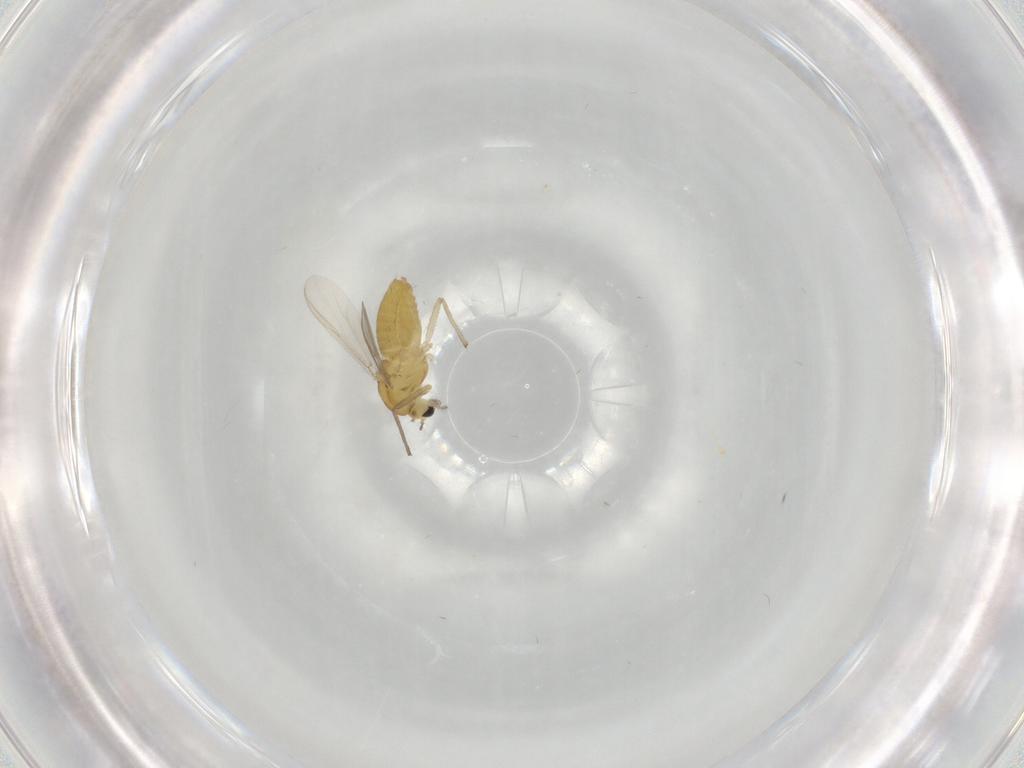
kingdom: Animalia
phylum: Arthropoda
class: Insecta
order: Diptera
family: Chironomidae
